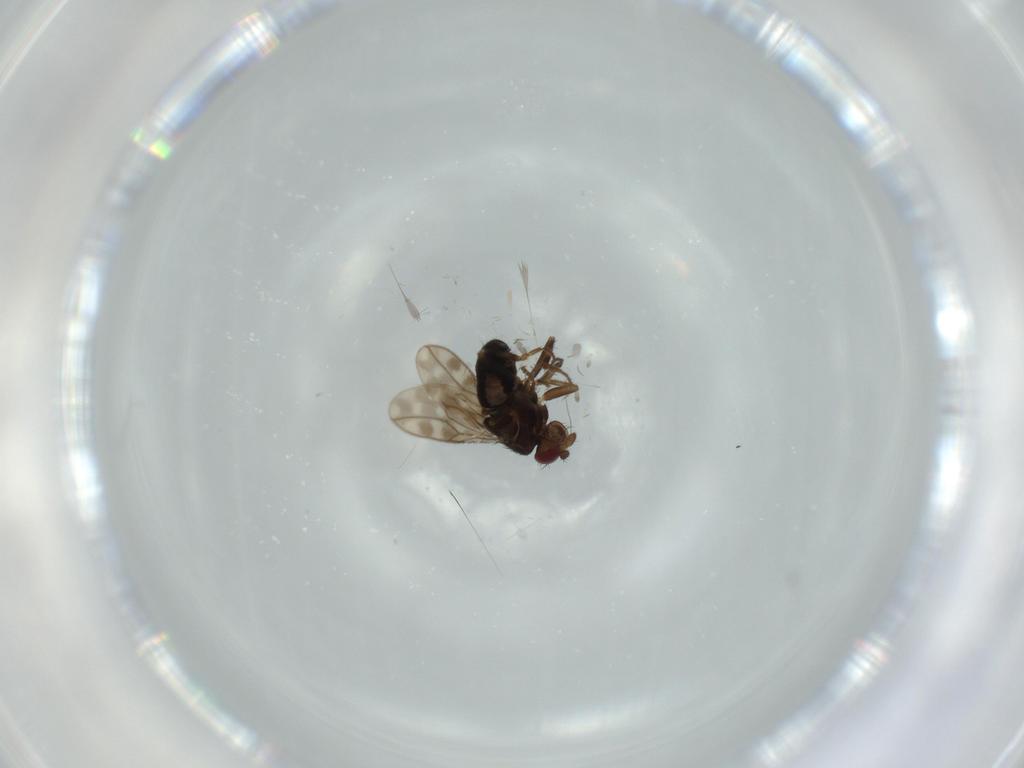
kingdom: Animalia
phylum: Arthropoda
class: Insecta
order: Diptera
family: Sphaeroceridae
